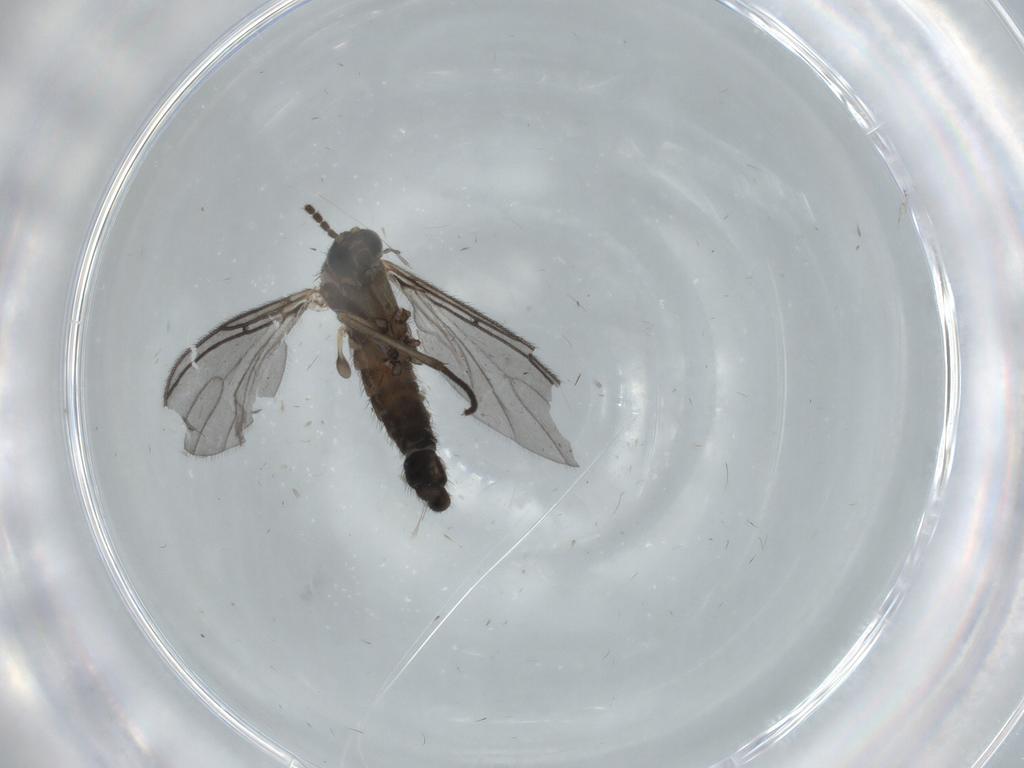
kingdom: Animalia
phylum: Arthropoda
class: Insecta
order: Diptera
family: Sciaridae
